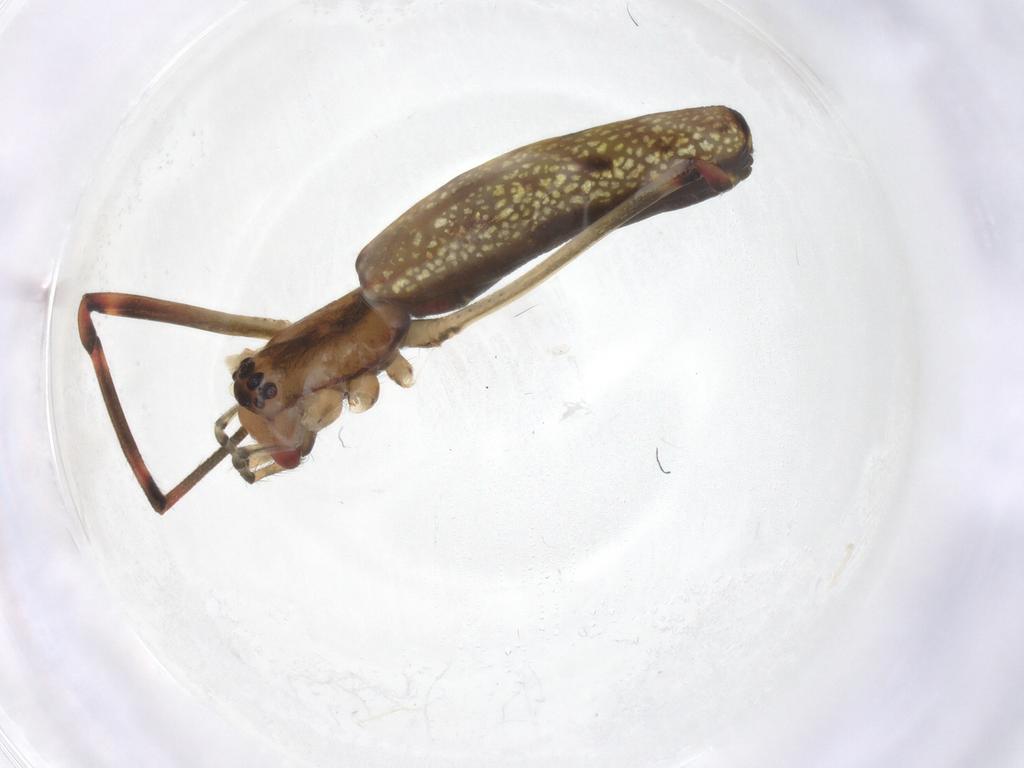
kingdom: Animalia
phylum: Arthropoda
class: Arachnida
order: Araneae
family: Tetragnathidae
